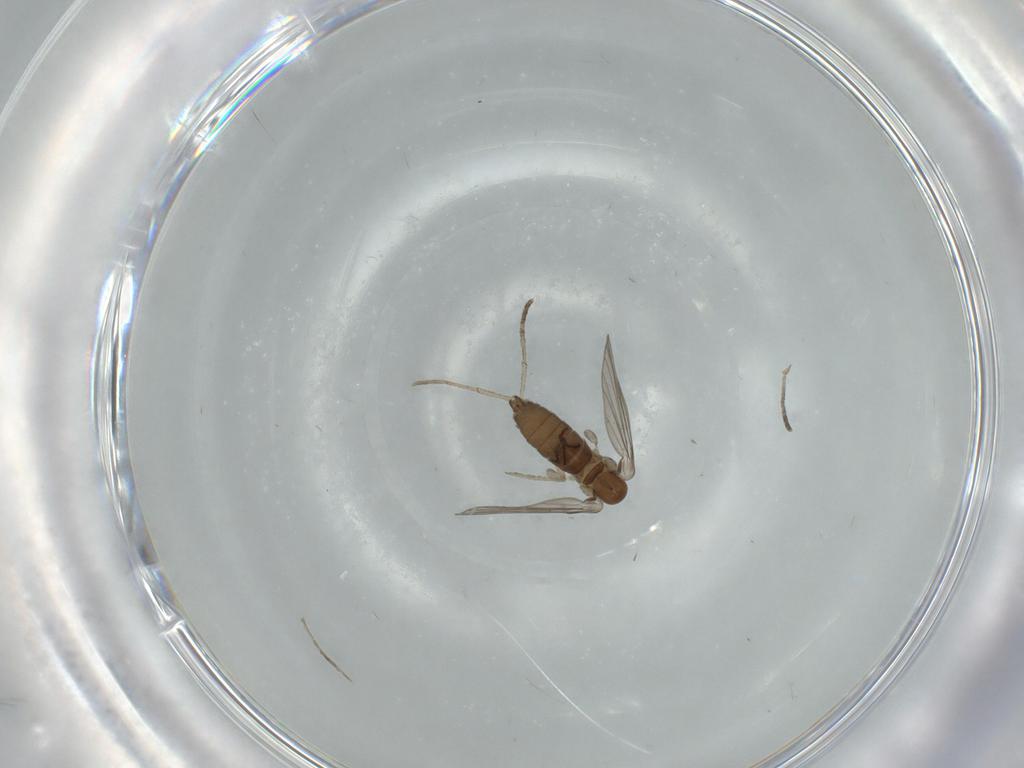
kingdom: Animalia
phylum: Arthropoda
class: Insecta
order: Diptera
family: Psychodidae
